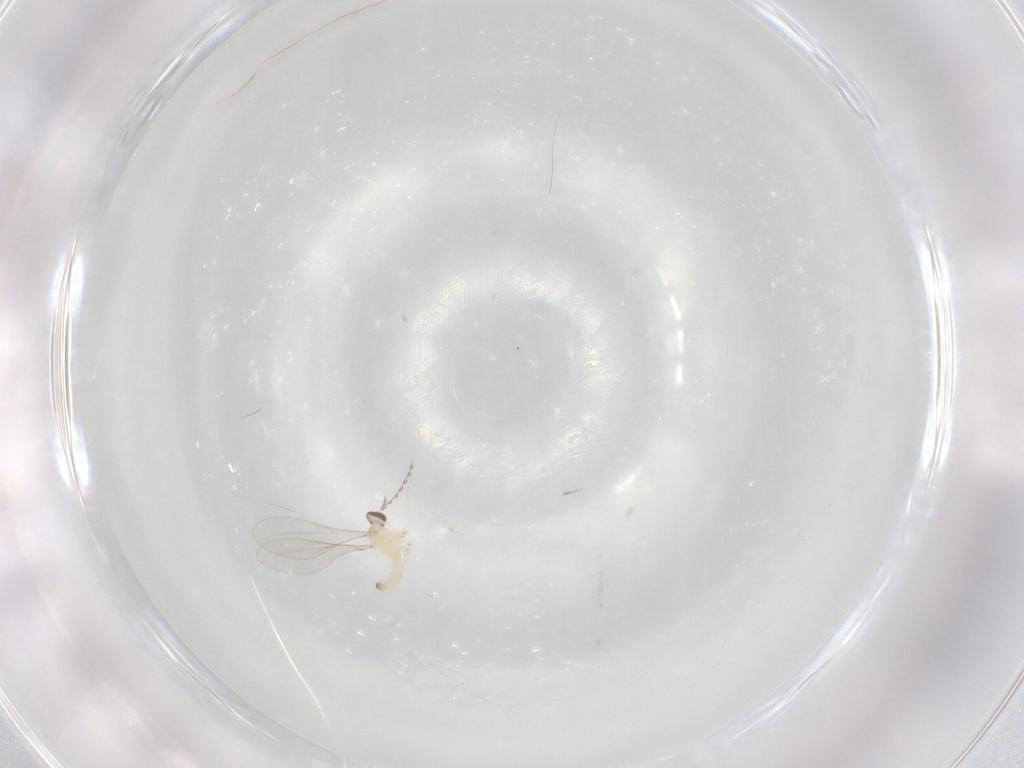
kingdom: Animalia
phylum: Arthropoda
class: Insecta
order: Diptera
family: Cecidomyiidae
